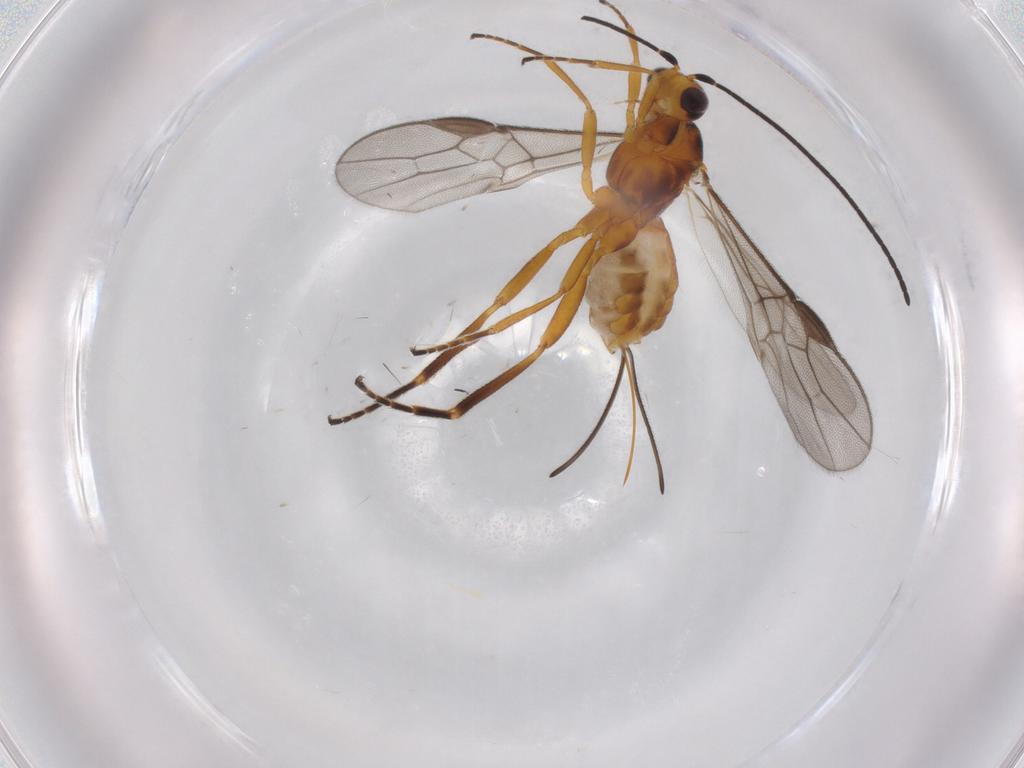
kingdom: Animalia
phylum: Arthropoda
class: Insecta
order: Hymenoptera
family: Braconidae
